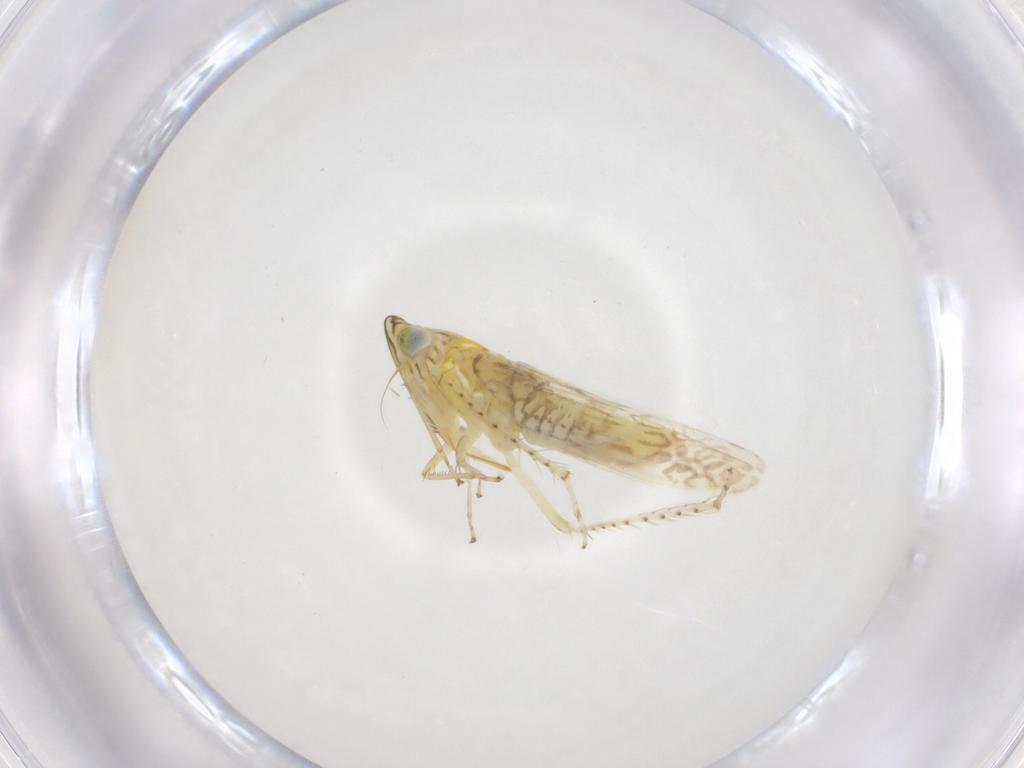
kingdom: Animalia
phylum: Arthropoda
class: Insecta
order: Hemiptera
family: Cicadellidae
